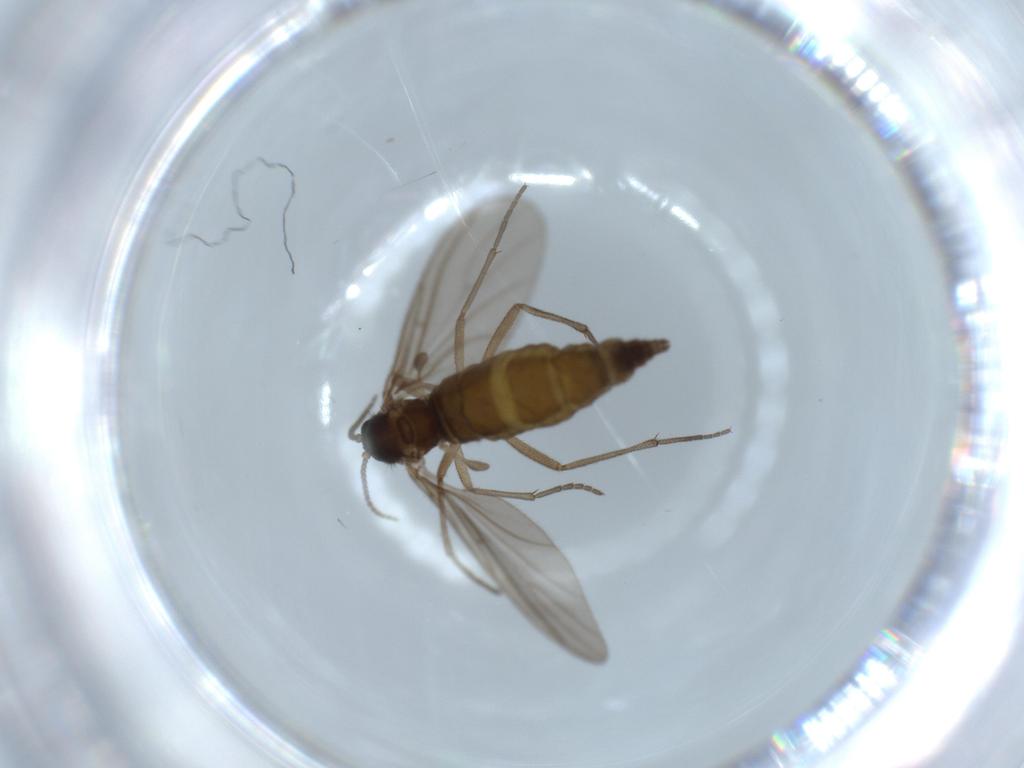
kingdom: Animalia
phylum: Arthropoda
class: Insecta
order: Diptera
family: Sciaridae
